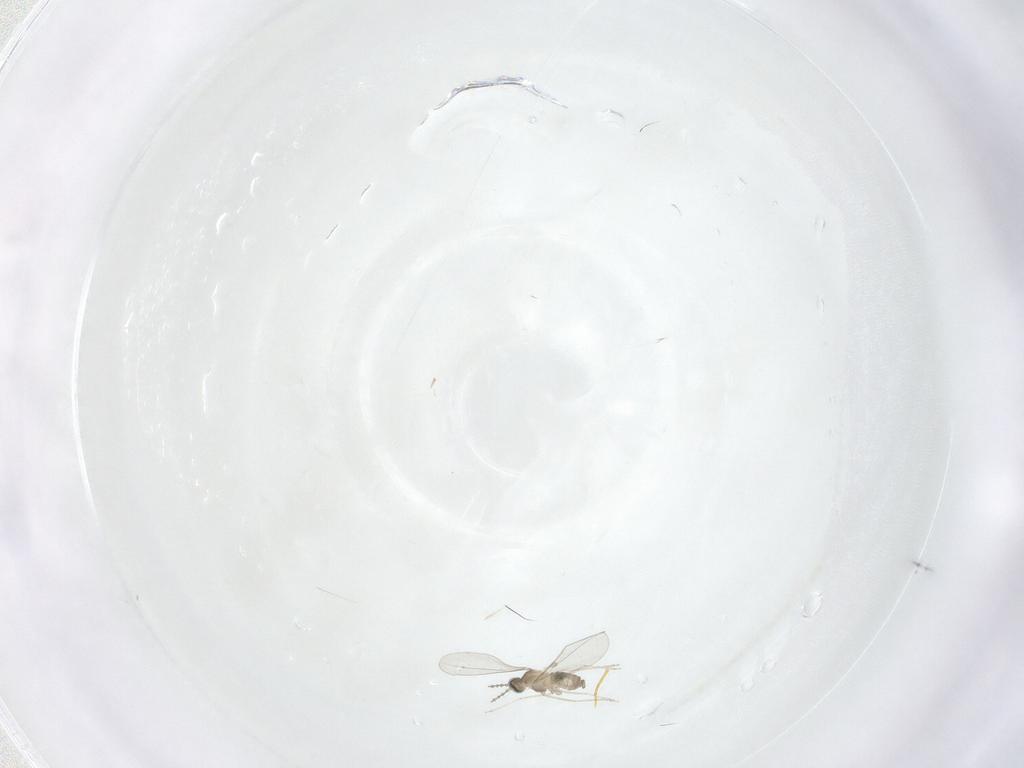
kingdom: Animalia
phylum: Arthropoda
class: Insecta
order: Diptera
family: Cecidomyiidae
